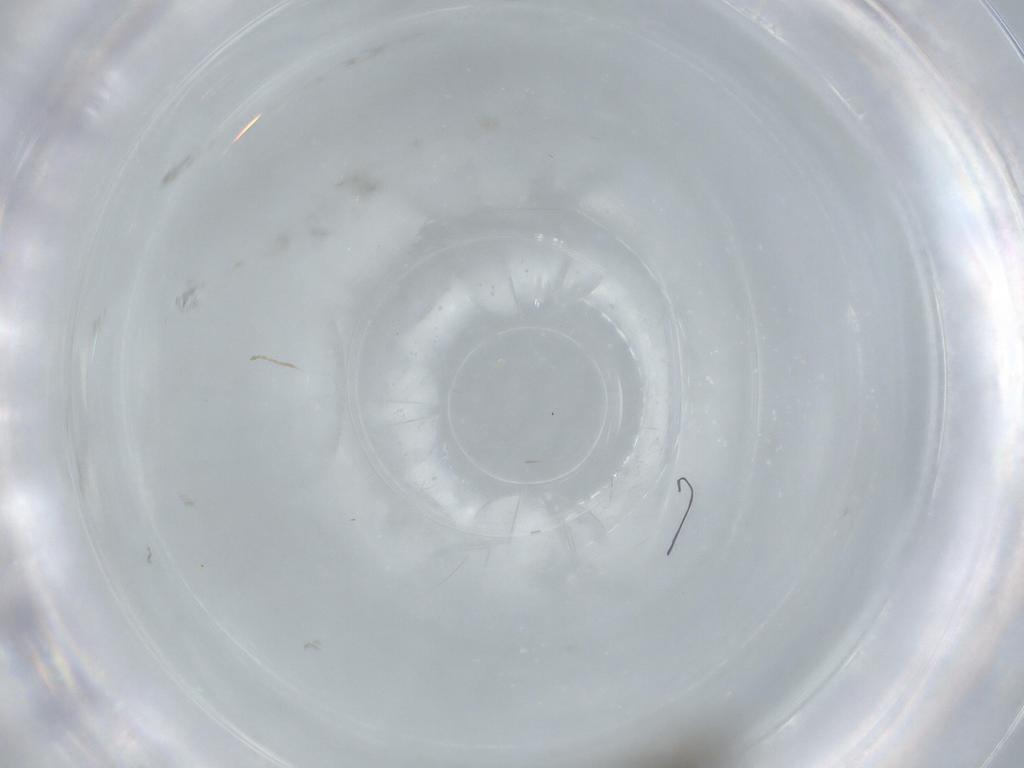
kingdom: Animalia
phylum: Arthropoda
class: Insecta
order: Diptera
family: Sciaridae
